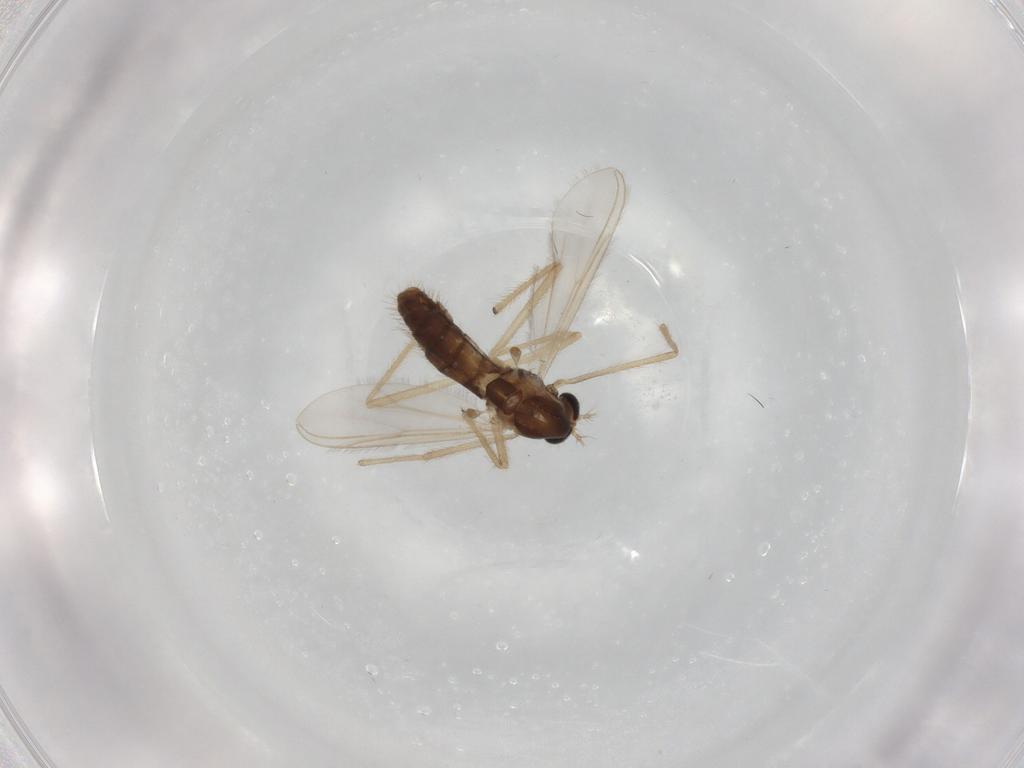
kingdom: Animalia
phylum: Arthropoda
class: Insecta
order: Diptera
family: Chironomidae
